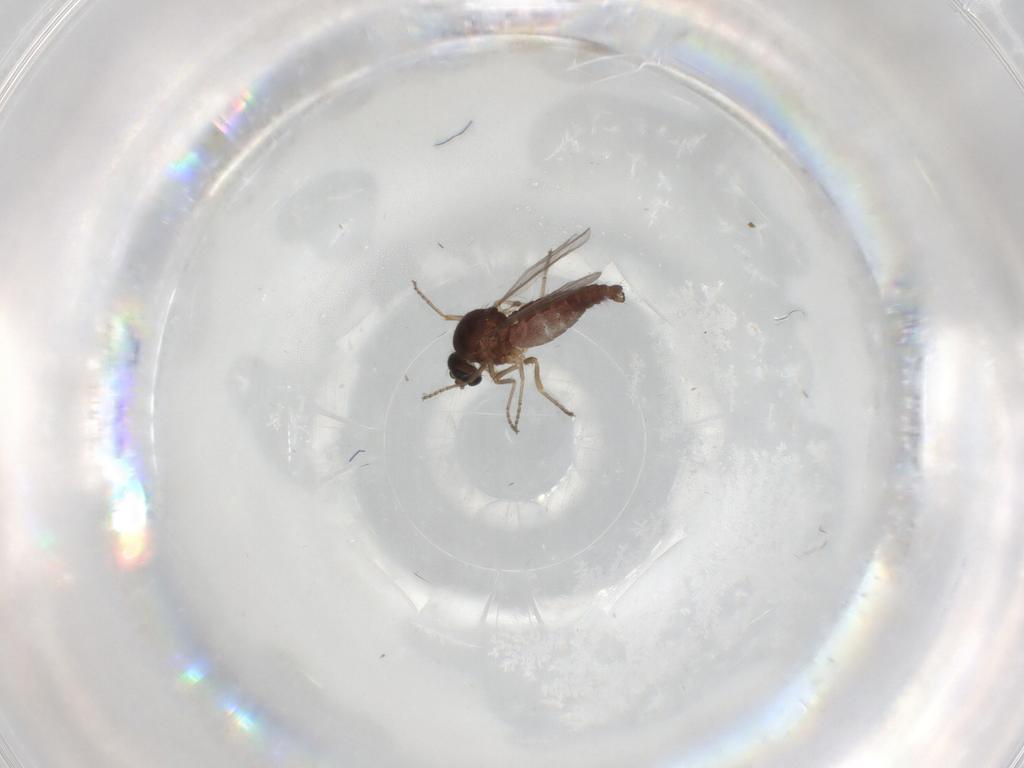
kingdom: Animalia
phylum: Arthropoda
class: Insecta
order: Diptera
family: Ceratopogonidae
